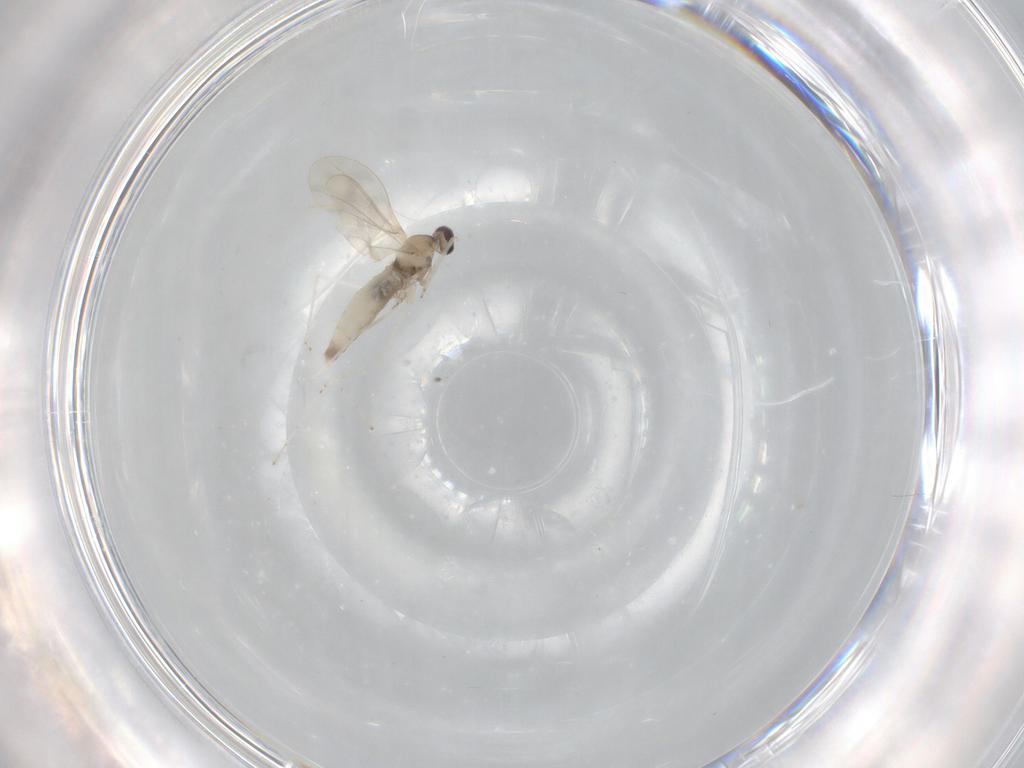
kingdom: Animalia
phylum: Arthropoda
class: Insecta
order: Diptera
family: Cecidomyiidae
